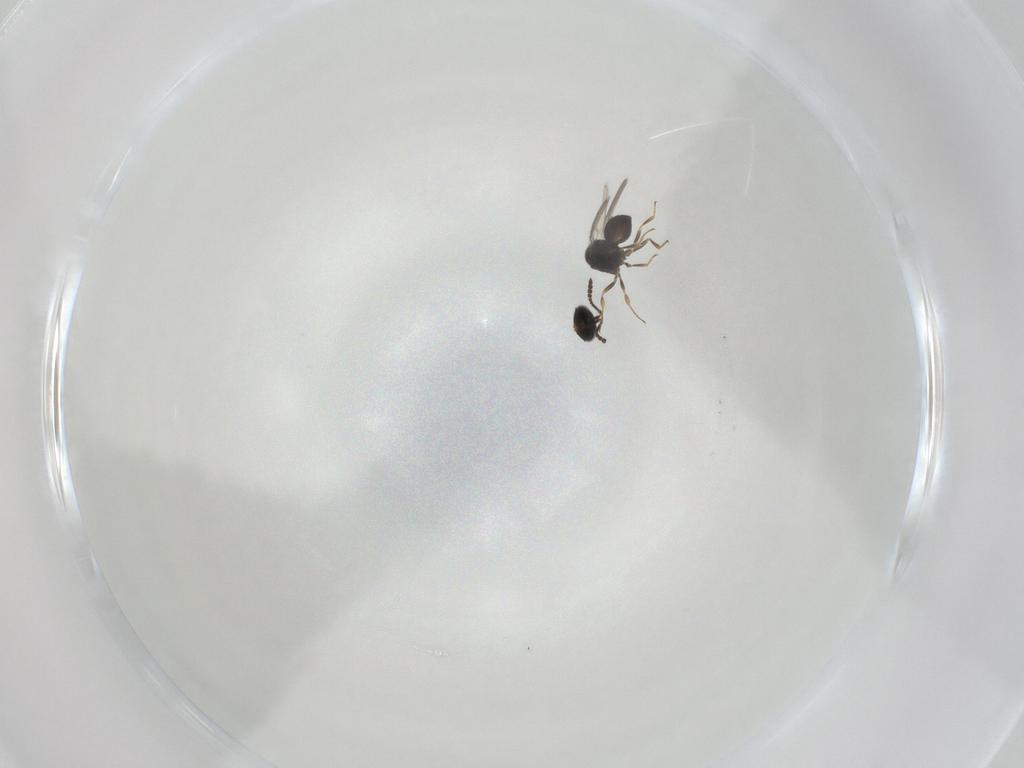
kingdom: Animalia
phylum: Arthropoda
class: Insecta
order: Hymenoptera
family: Scelionidae
